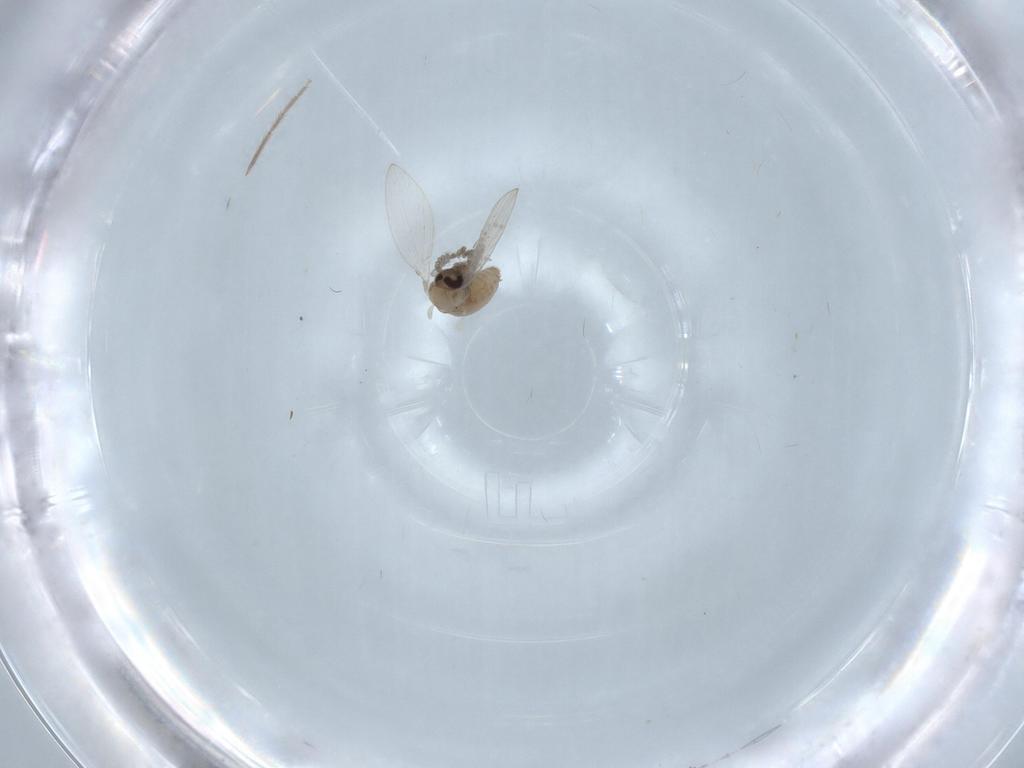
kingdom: Animalia
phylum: Arthropoda
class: Insecta
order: Diptera
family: Psychodidae
